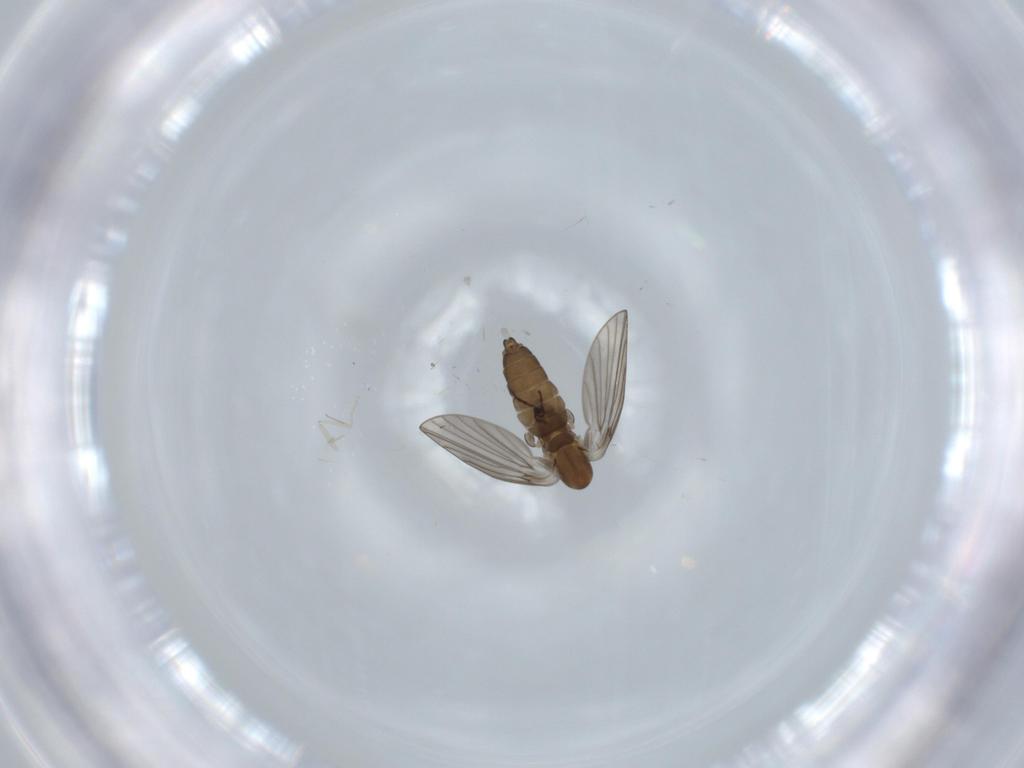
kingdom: Animalia
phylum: Arthropoda
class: Insecta
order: Diptera
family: Psychodidae
